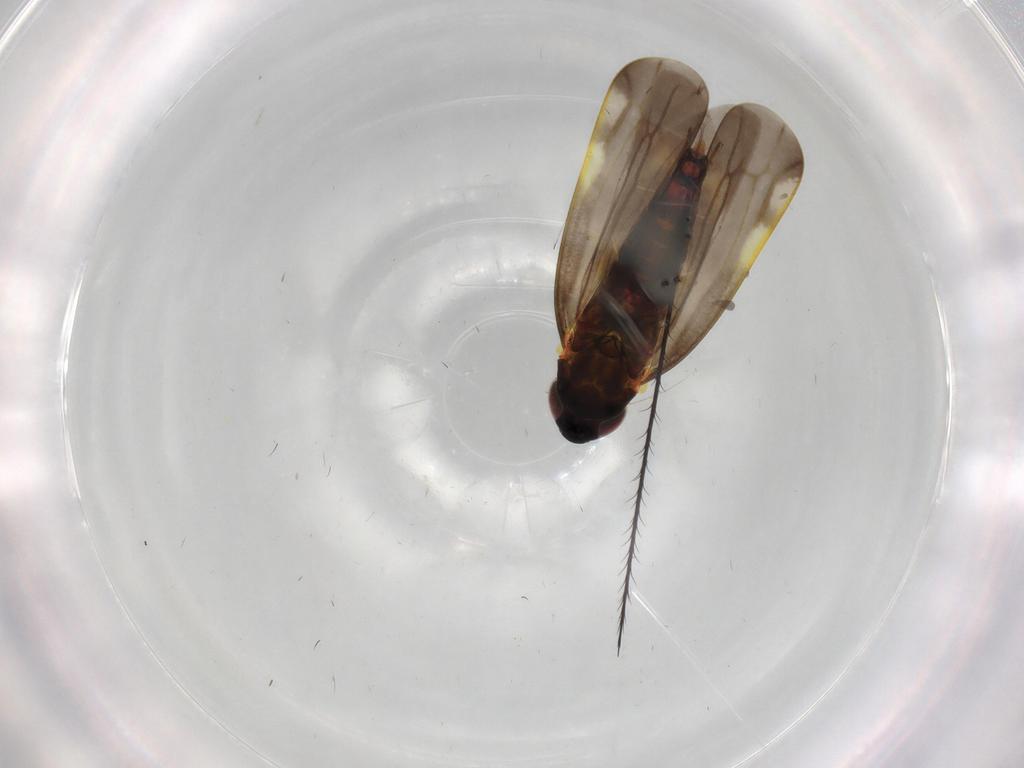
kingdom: Animalia
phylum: Arthropoda
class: Insecta
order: Hemiptera
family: Cicadellidae
